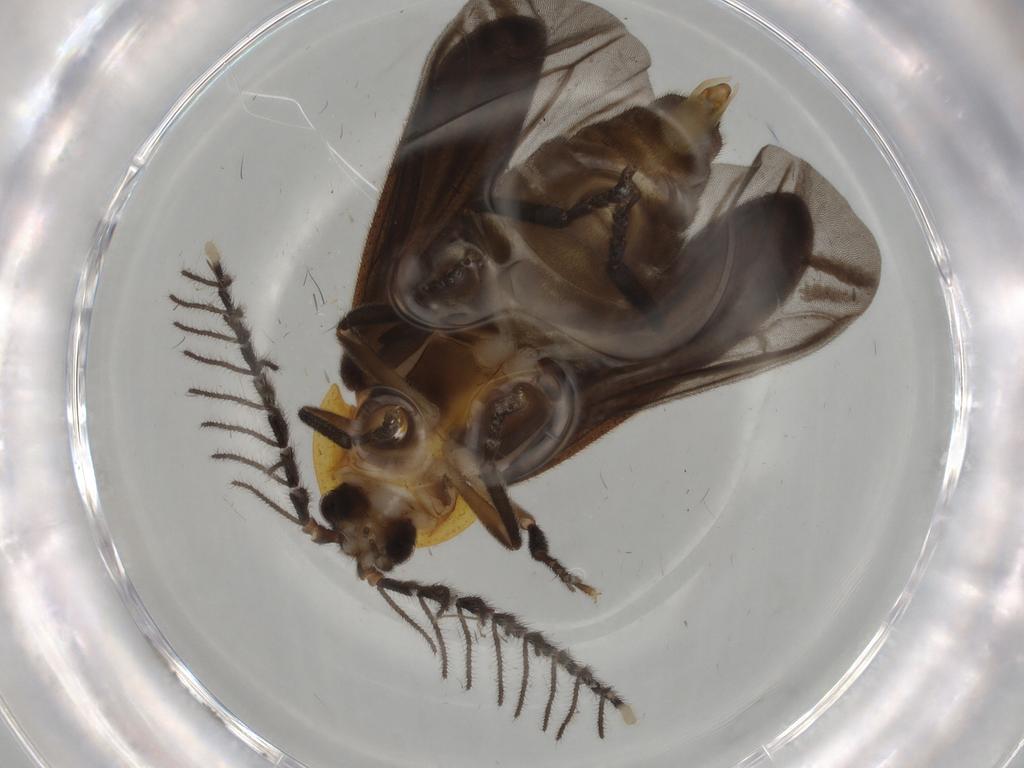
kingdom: Animalia
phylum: Arthropoda
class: Insecta
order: Coleoptera
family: Lampyridae
